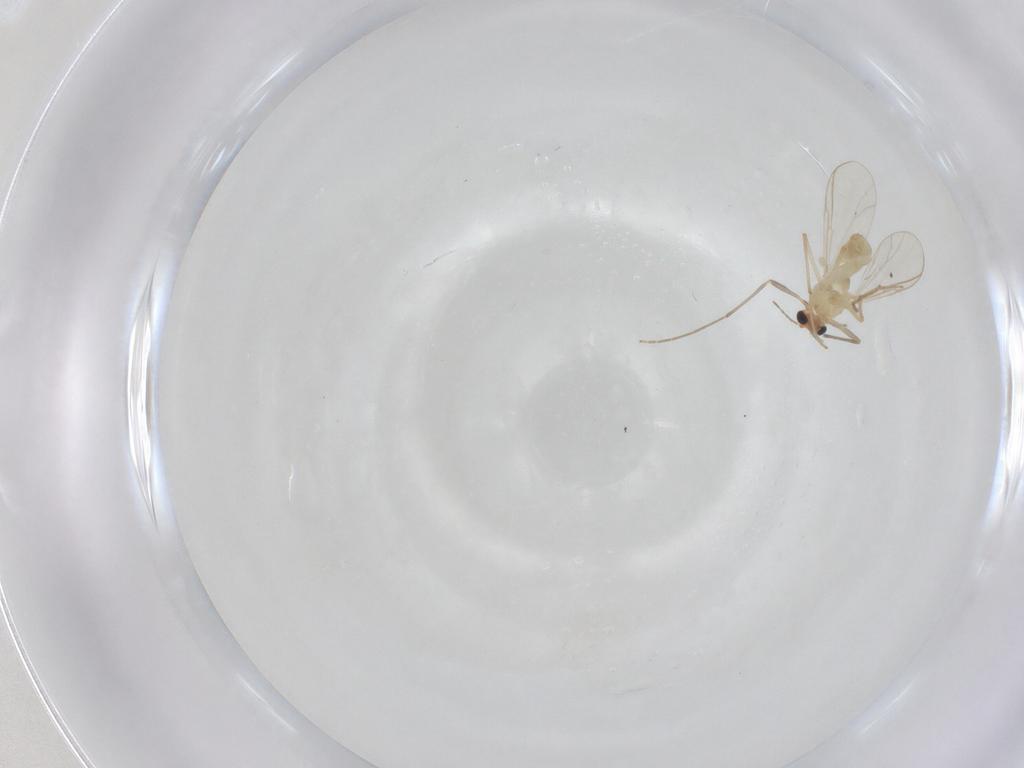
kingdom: Animalia
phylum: Arthropoda
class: Insecta
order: Diptera
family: Chironomidae
